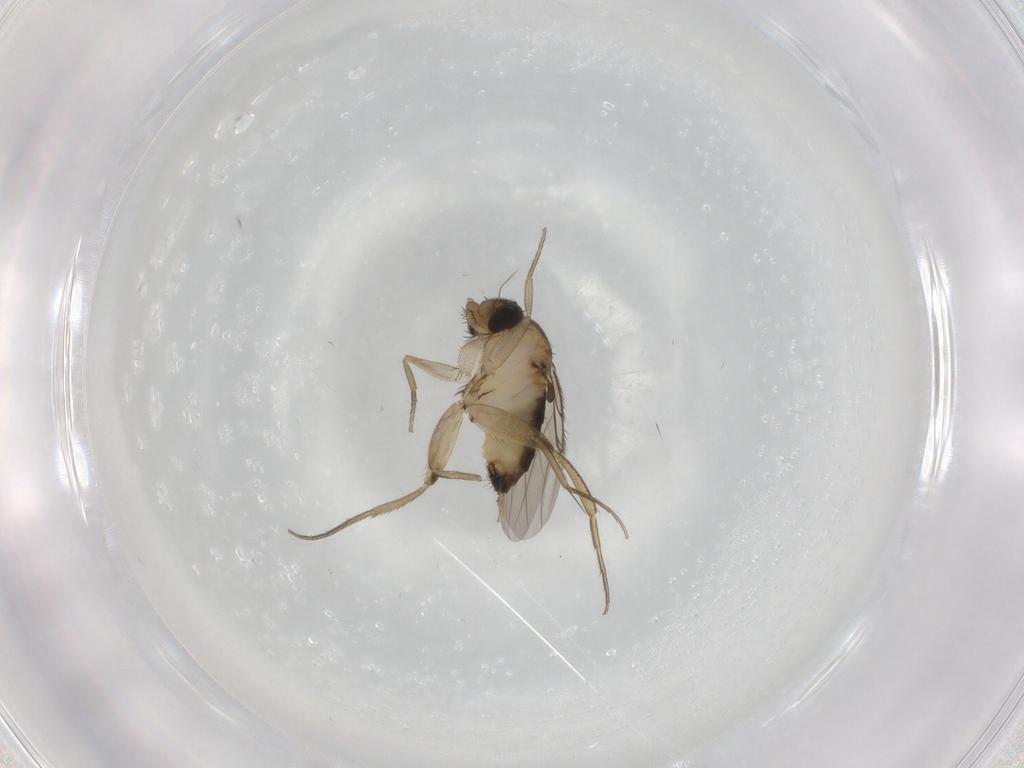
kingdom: Animalia
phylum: Arthropoda
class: Insecta
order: Diptera
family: Phoridae
